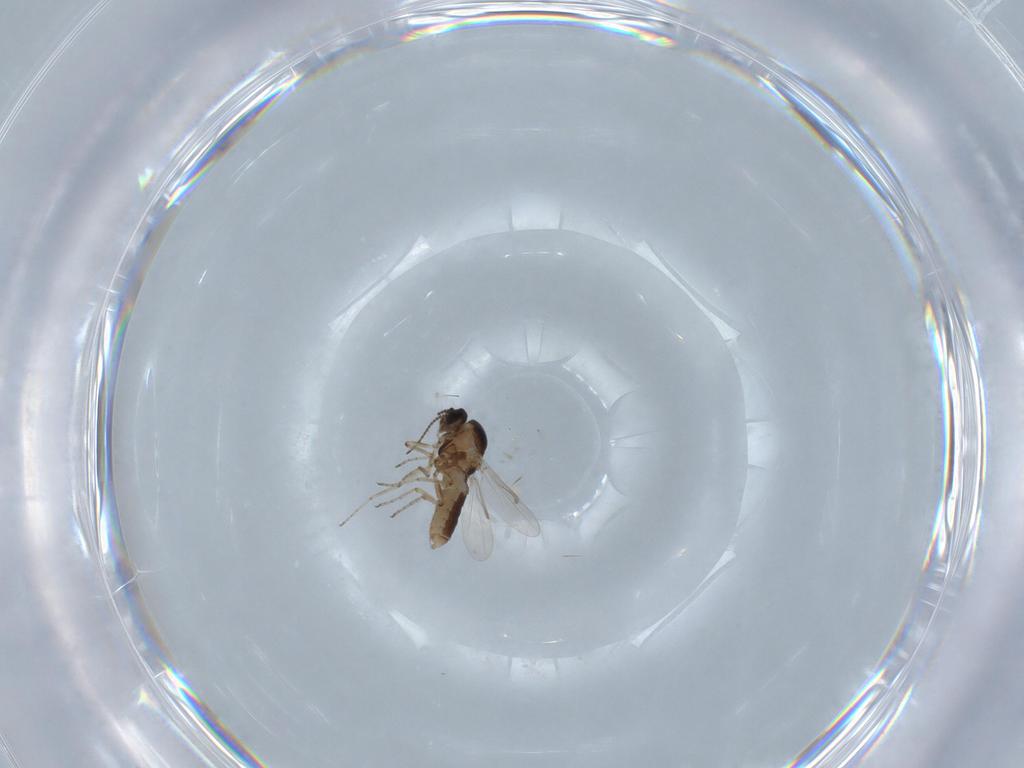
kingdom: Animalia
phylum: Arthropoda
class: Insecta
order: Diptera
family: Ceratopogonidae
